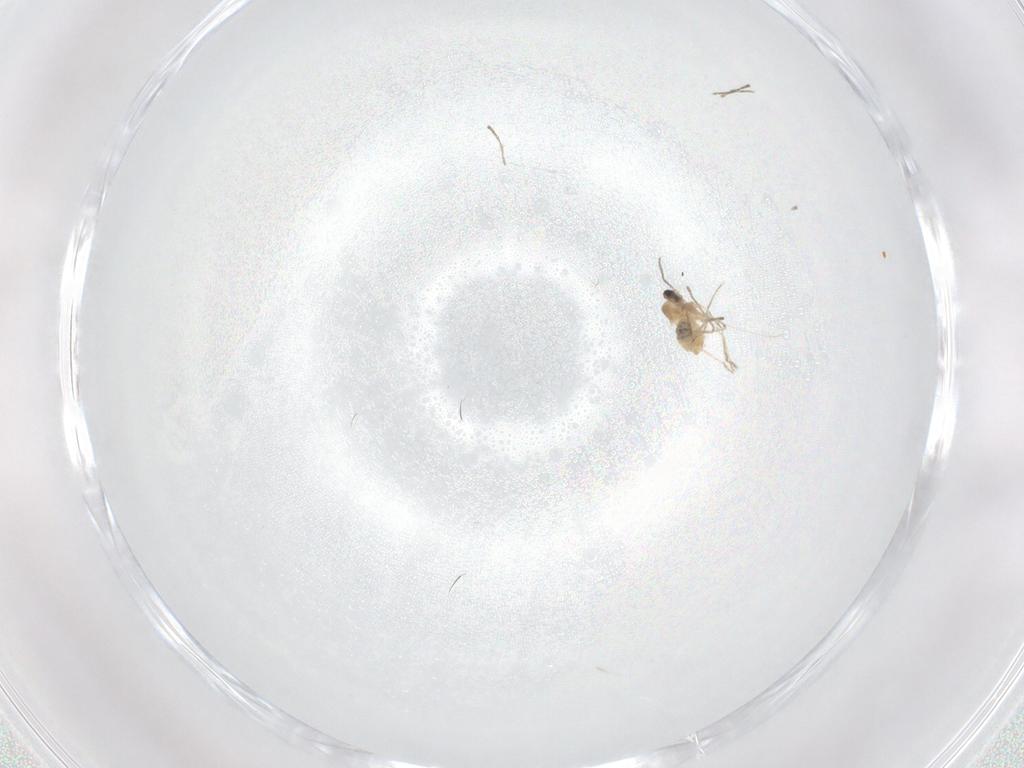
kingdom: Animalia
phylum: Arthropoda
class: Insecta
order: Diptera
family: Cecidomyiidae
